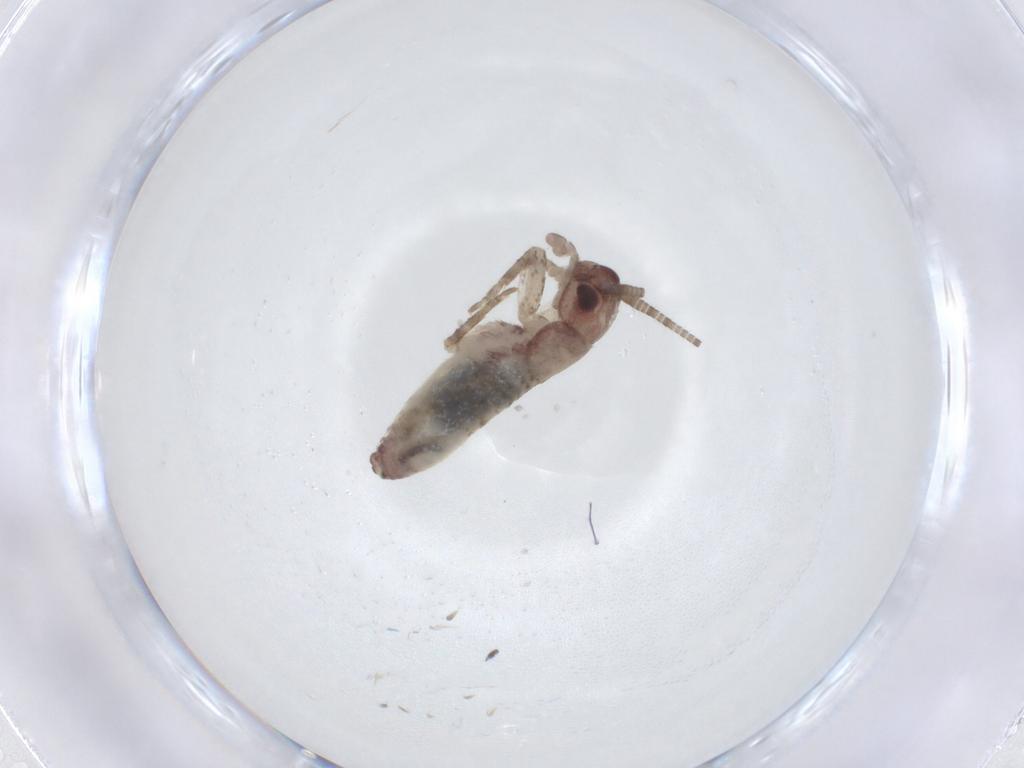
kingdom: Animalia
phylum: Arthropoda
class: Insecta
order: Orthoptera
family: Gryllidae
